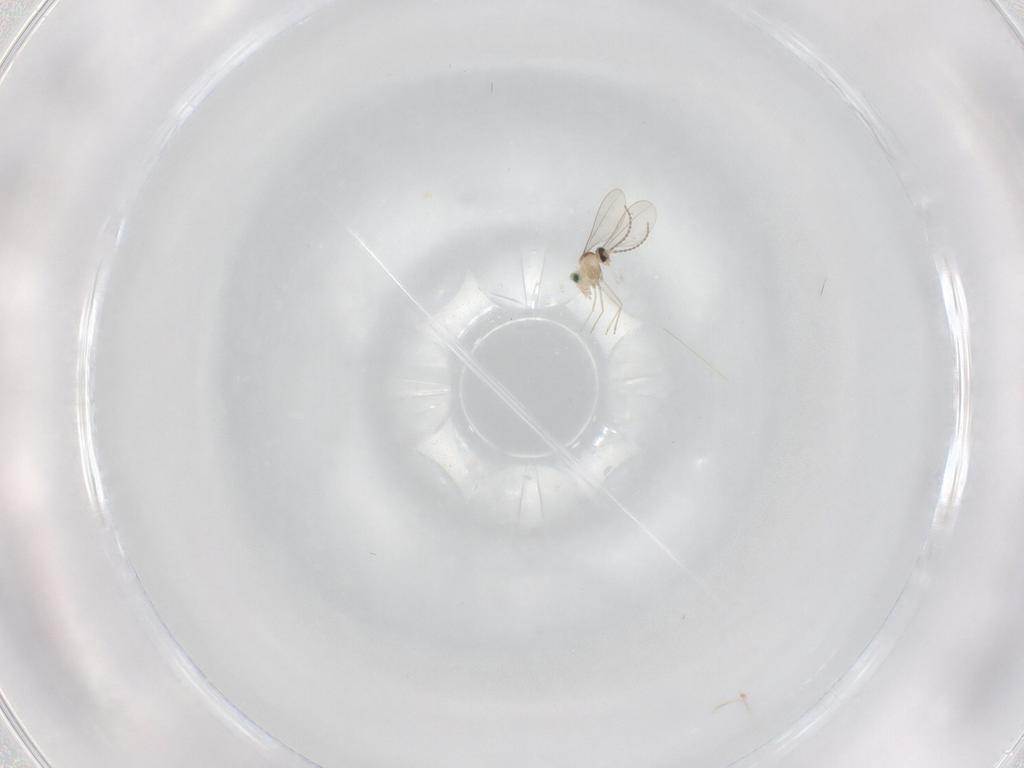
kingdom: Animalia
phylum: Arthropoda
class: Insecta
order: Diptera
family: Cecidomyiidae
